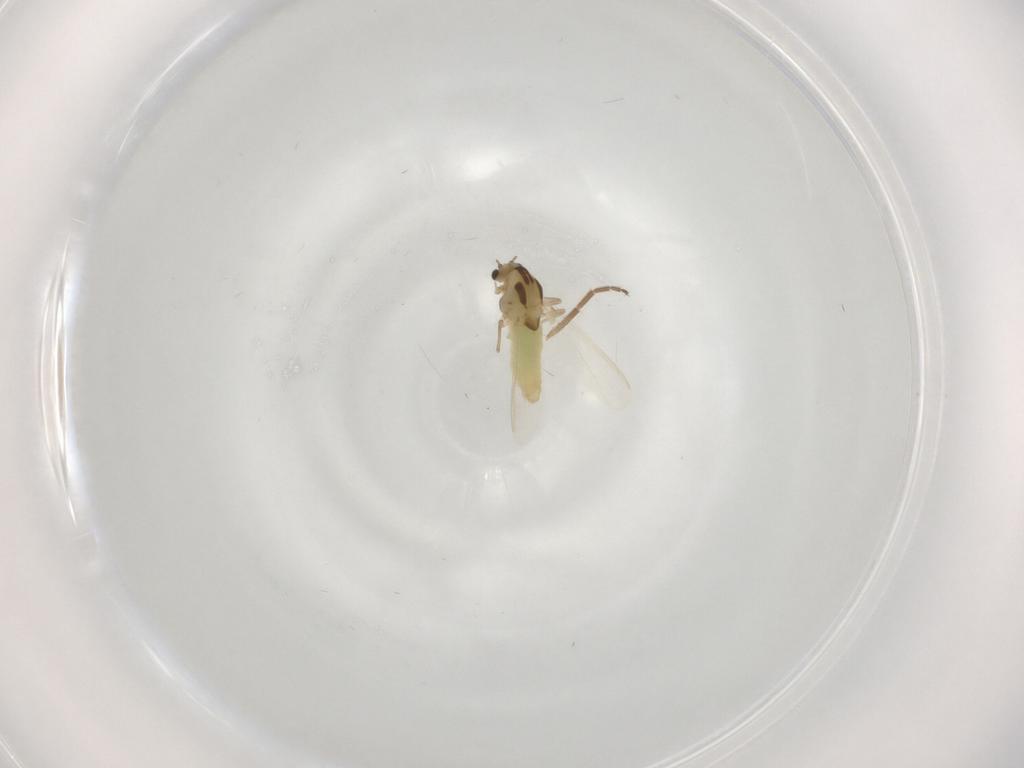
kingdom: Animalia
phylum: Arthropoda
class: Insecta
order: Diptera
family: Chironomidae
